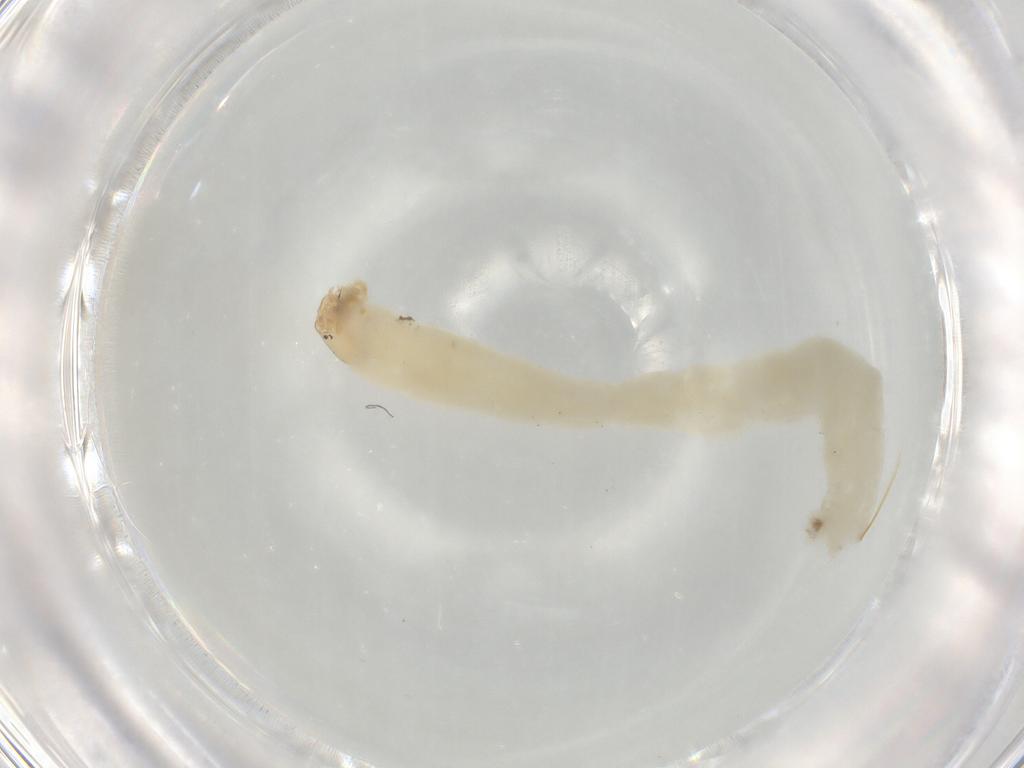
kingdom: Animalia
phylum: Arthropoda
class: Insecta
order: Diptera
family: Chironomidae
